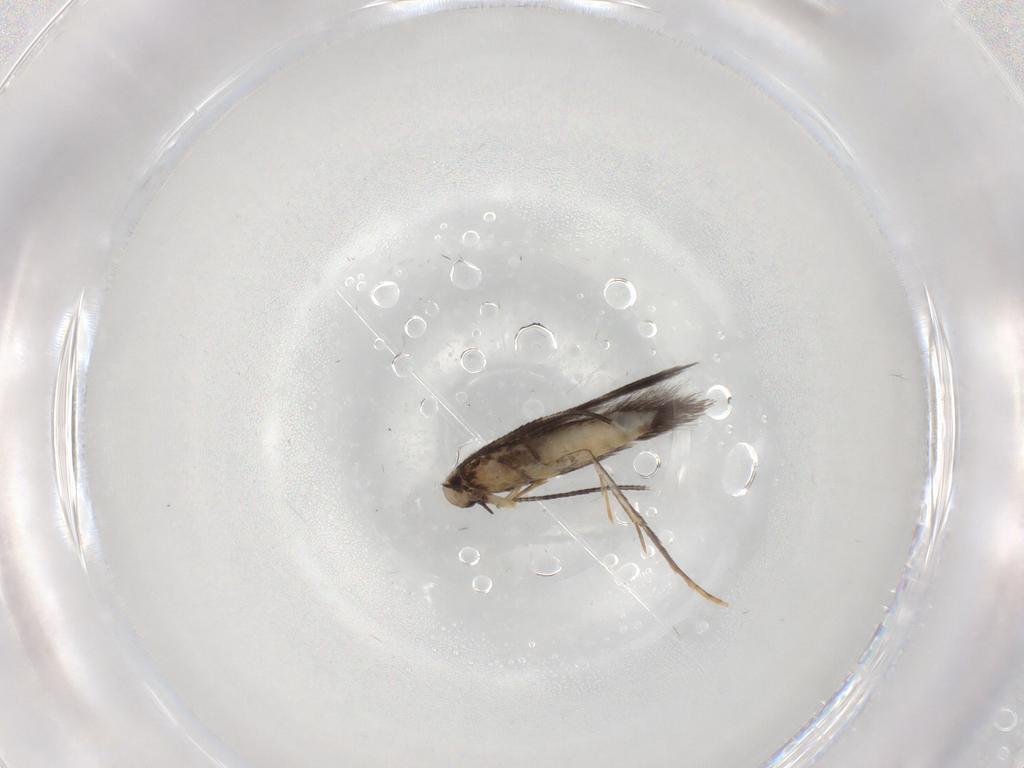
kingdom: Animalia
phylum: Arthropoda
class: Insecta
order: Lepidoptera
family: Gracillariidae
